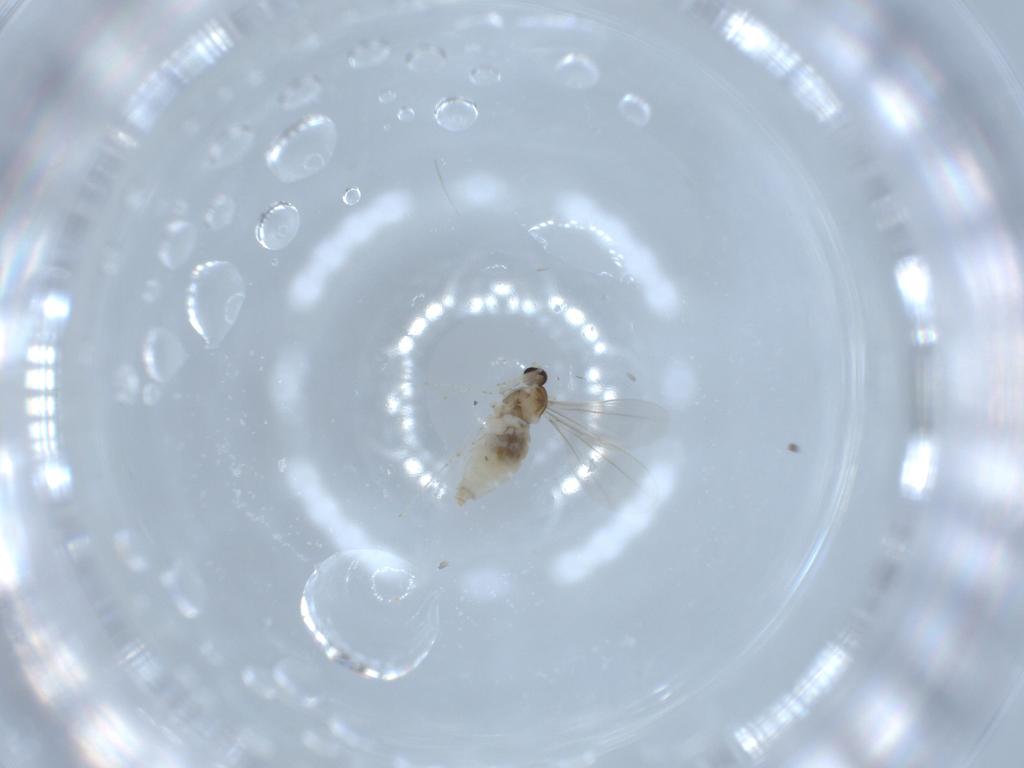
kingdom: Animalia
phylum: Arthropoda
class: Insecta
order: Diptera
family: Cecidomyiidae
